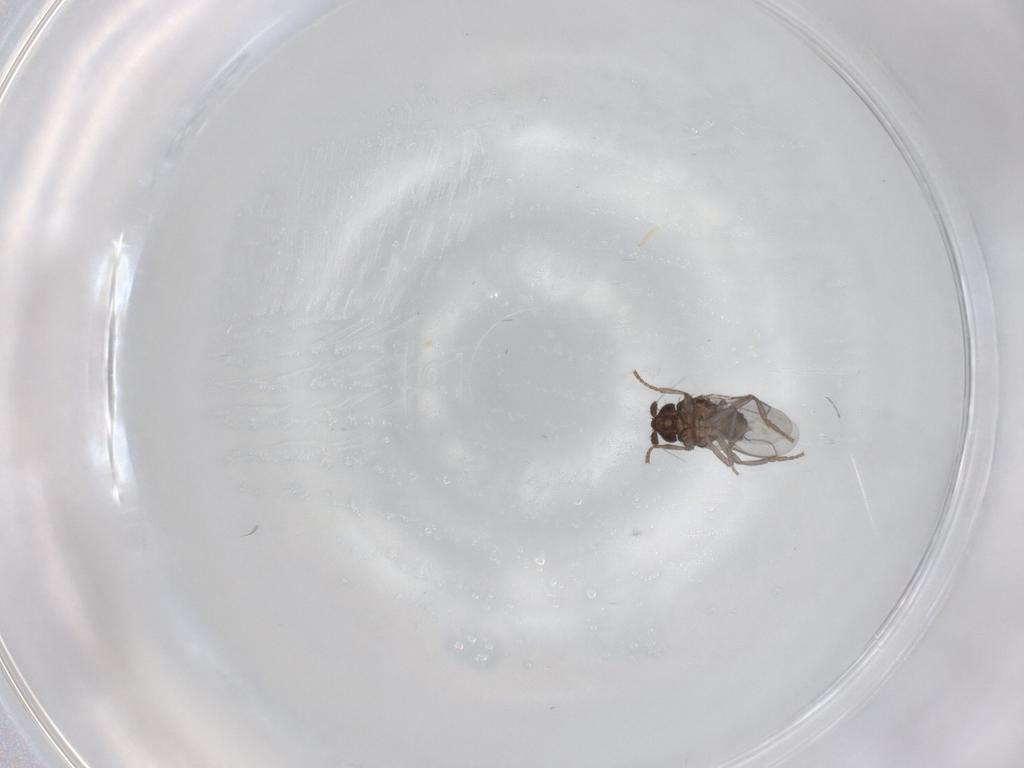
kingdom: Animalia
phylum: Arthropoda
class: Insecta
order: Diptera
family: Sphaeroceridae
